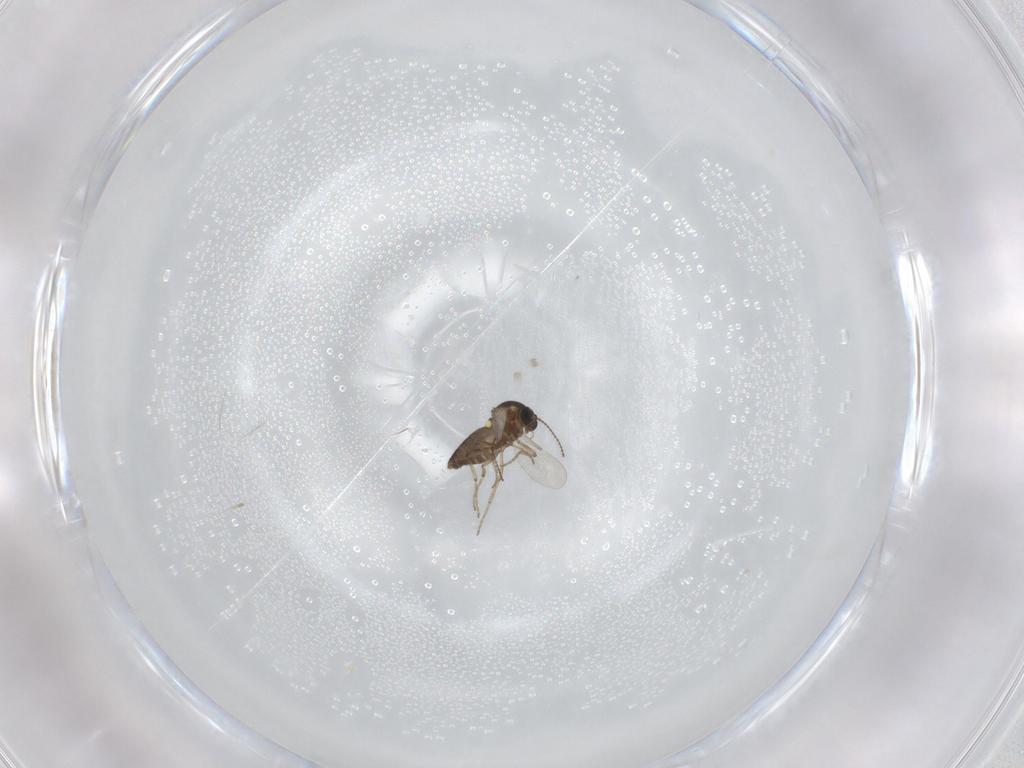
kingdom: Animalia
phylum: Arthropoda
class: Insecta
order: Diptera
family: Ceratopogonidae
